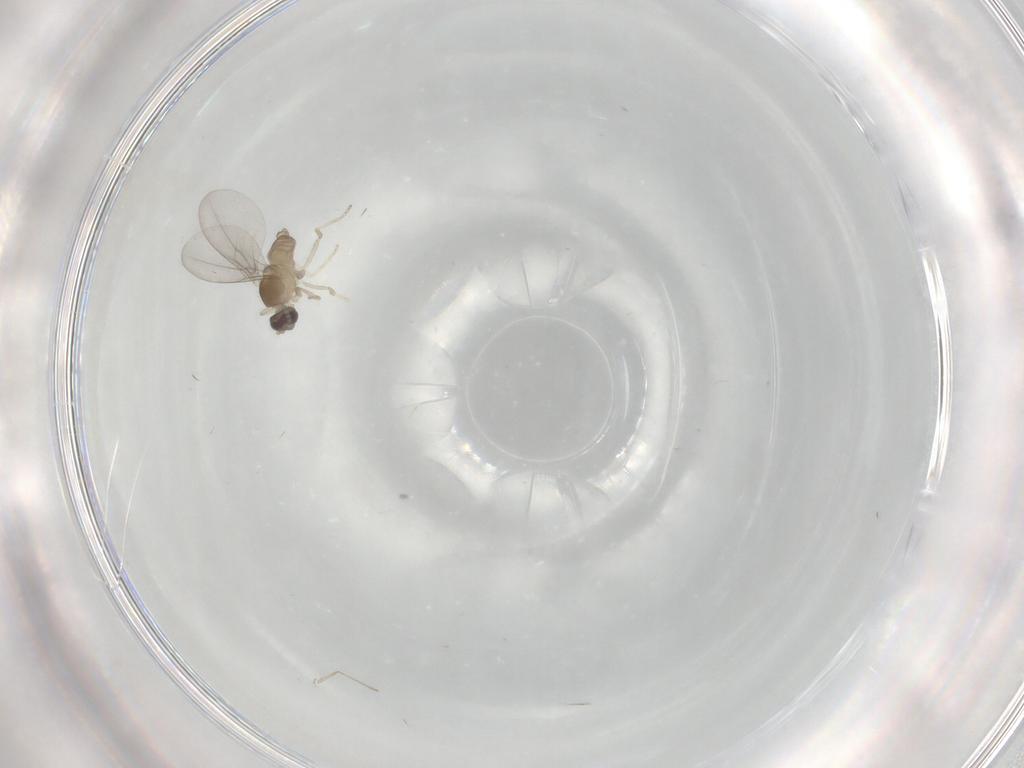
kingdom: Animalia
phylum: Arthropoda
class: Insecta
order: Diptera
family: Cecidomyiidae
